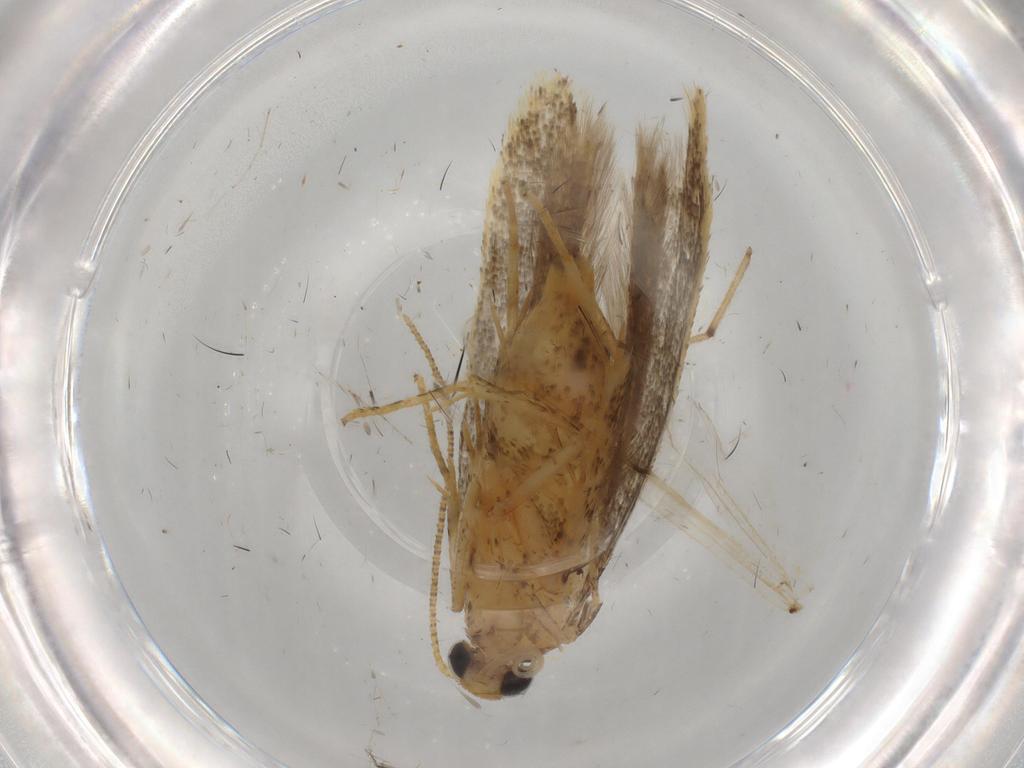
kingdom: Animalia
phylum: Arthropoda
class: Insecta
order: Lepidoptera
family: Gelechiidae
